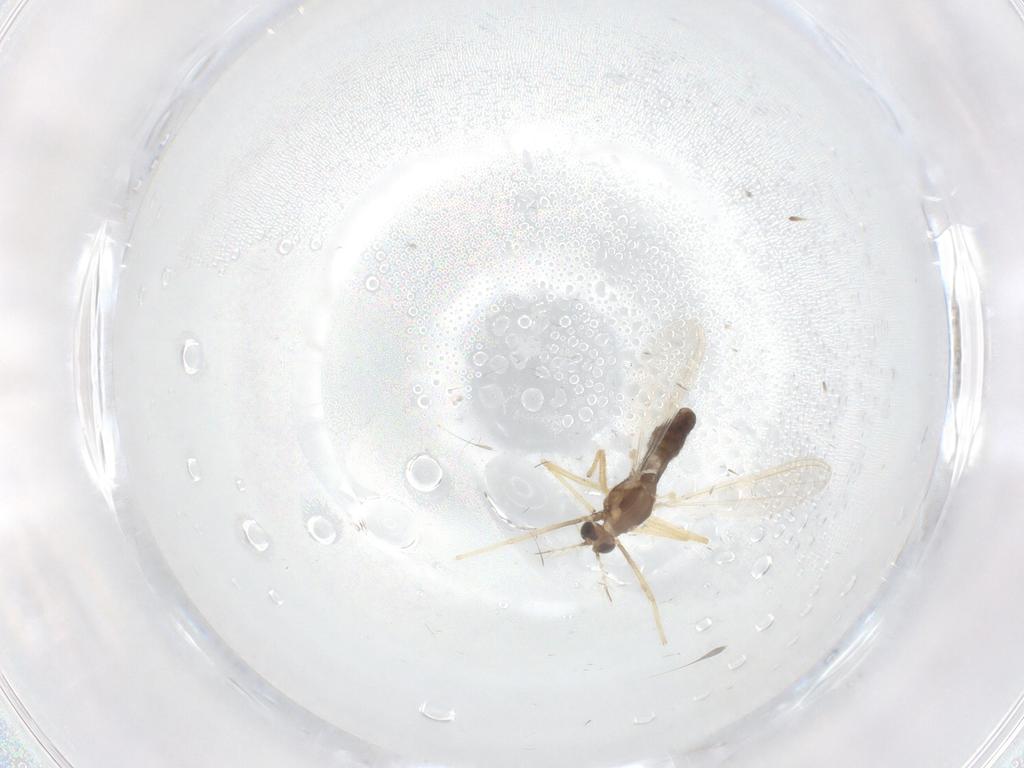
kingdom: Animalia
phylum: Arthropoda
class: Insecta
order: Diptera
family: Chironomidae
